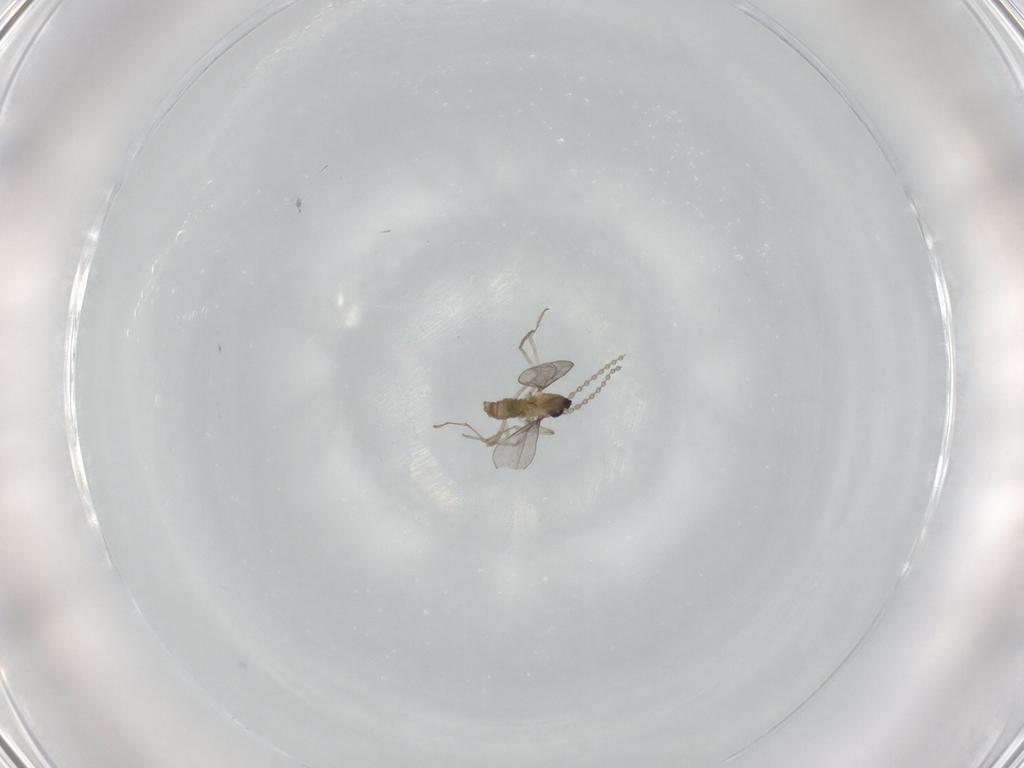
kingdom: Animalia
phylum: Arthropoda
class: Insecta
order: Diptera
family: Cecidomyiidae
